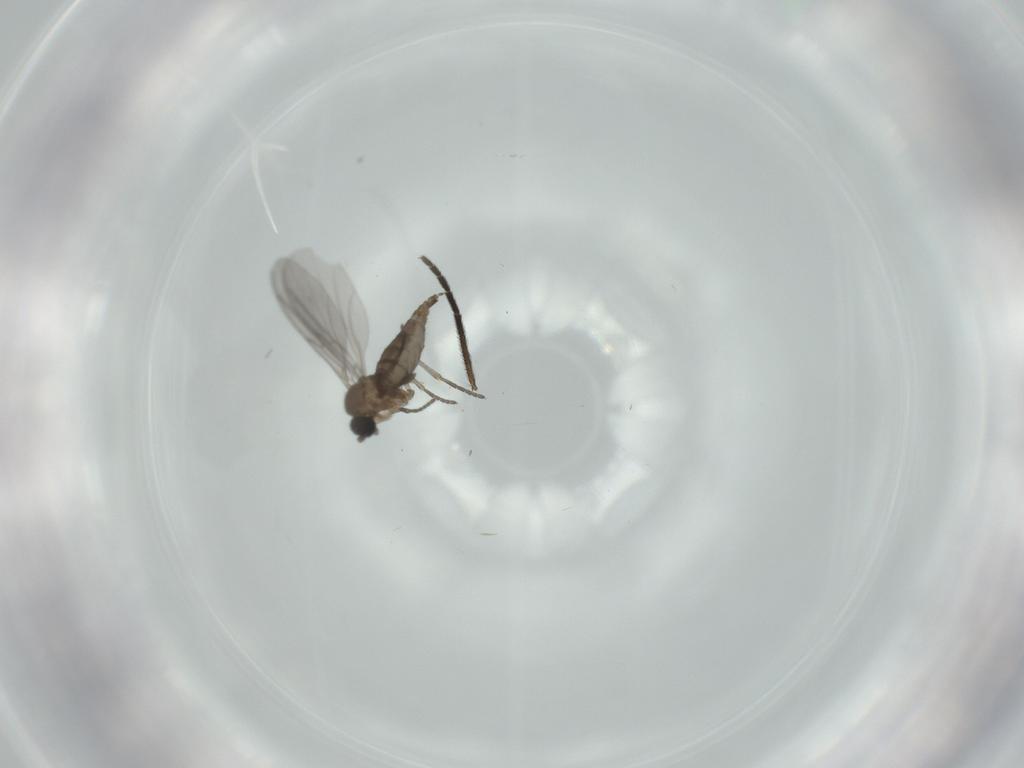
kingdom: Animalia
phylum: Arthropoda
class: Insecta
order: Diptera
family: Sciaridae
